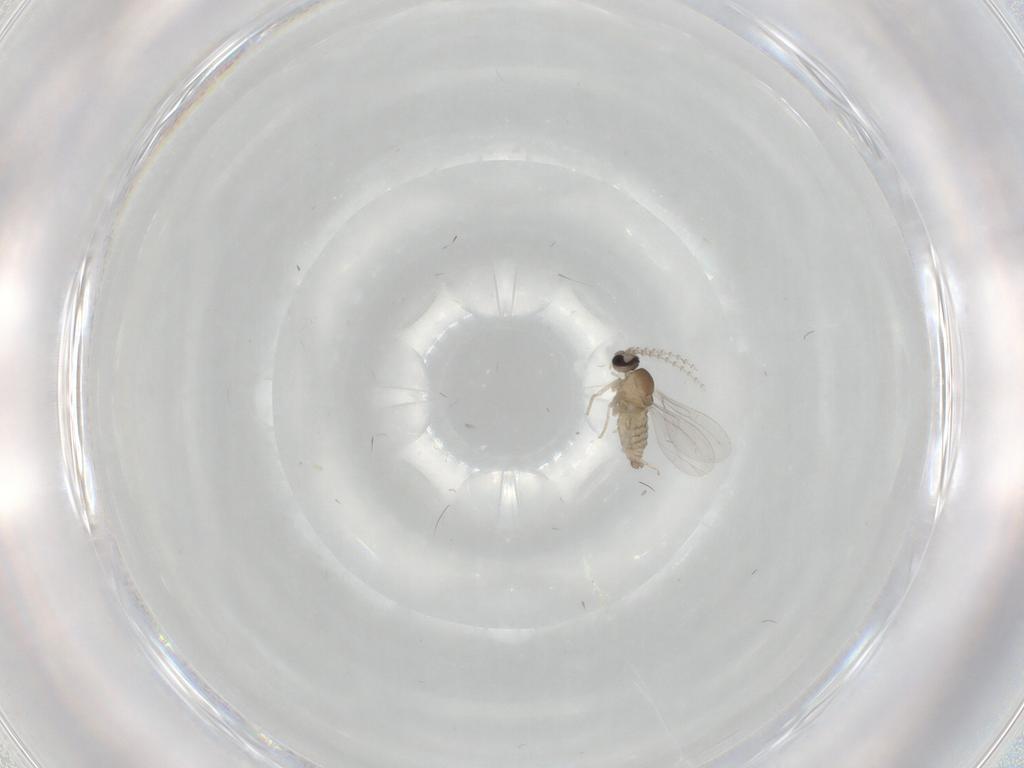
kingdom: Animalia
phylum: Arthropoda
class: Insecta
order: Diptera
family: Cecidomyiidae
